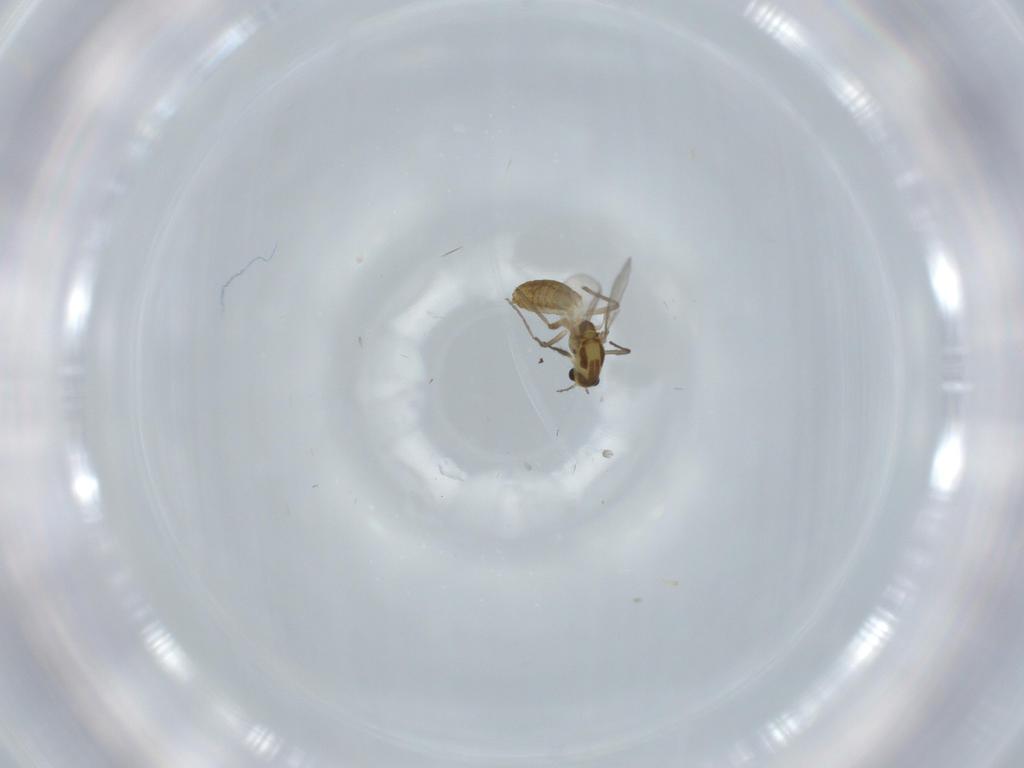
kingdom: Animalia
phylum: Arthropoda
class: Insecta
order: Diptera
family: Chironomidae
